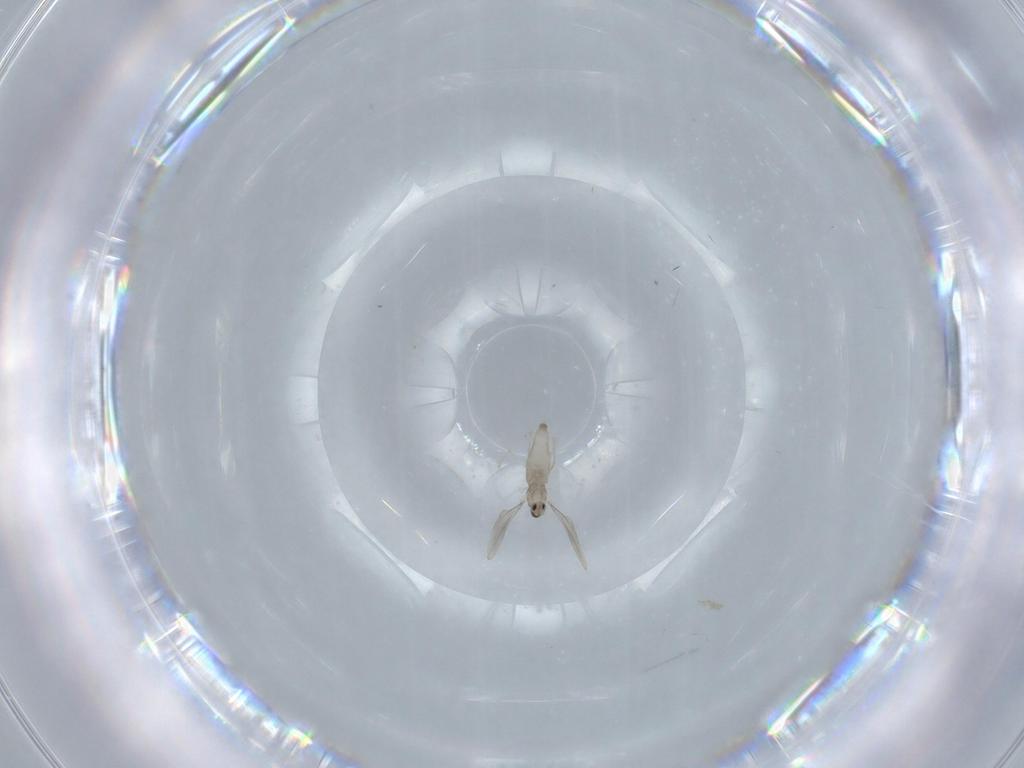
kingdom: Animalia
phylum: Arthropoda
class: Insecta
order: Diptera
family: Cecidomyiidae
